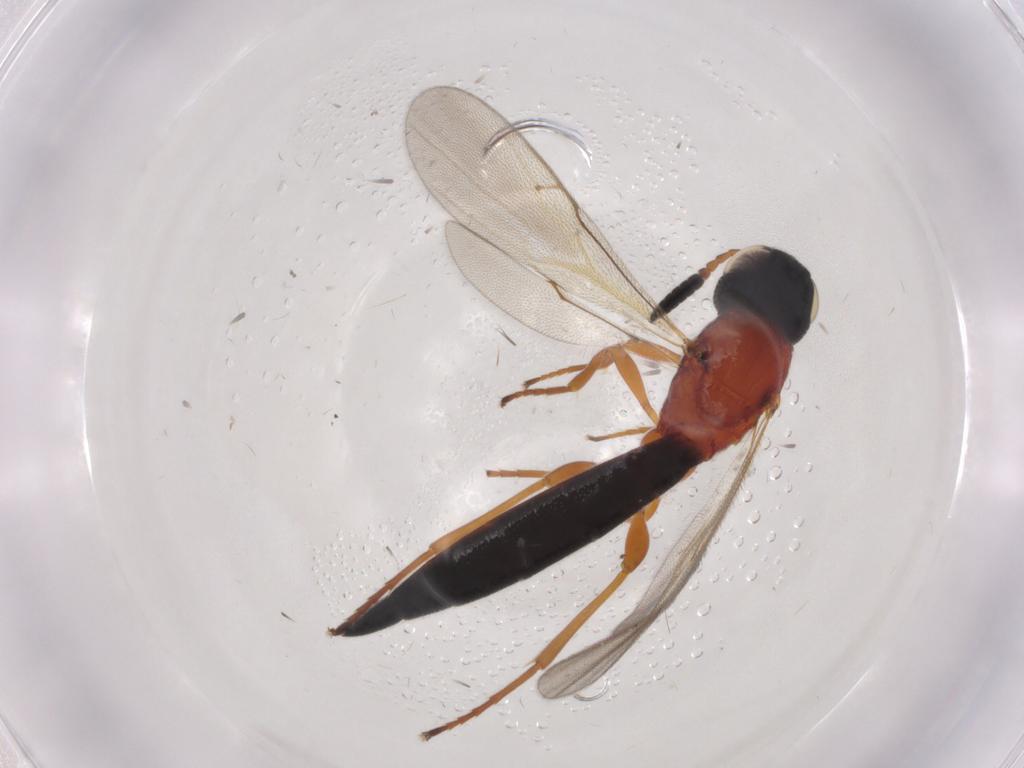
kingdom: Animalia
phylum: Arthropoda
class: Insecta
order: Hymenoptera
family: Scelionidae
